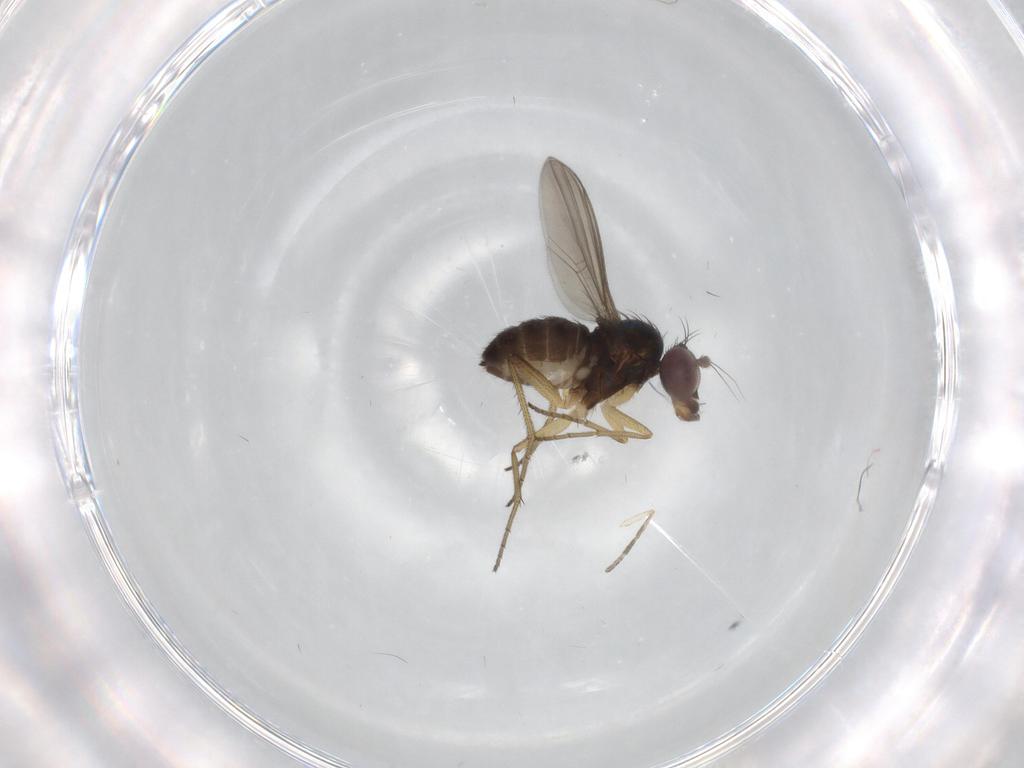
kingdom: Animalia
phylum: Arthropoda
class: Insecta
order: Diptera
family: Dolichopodidae
